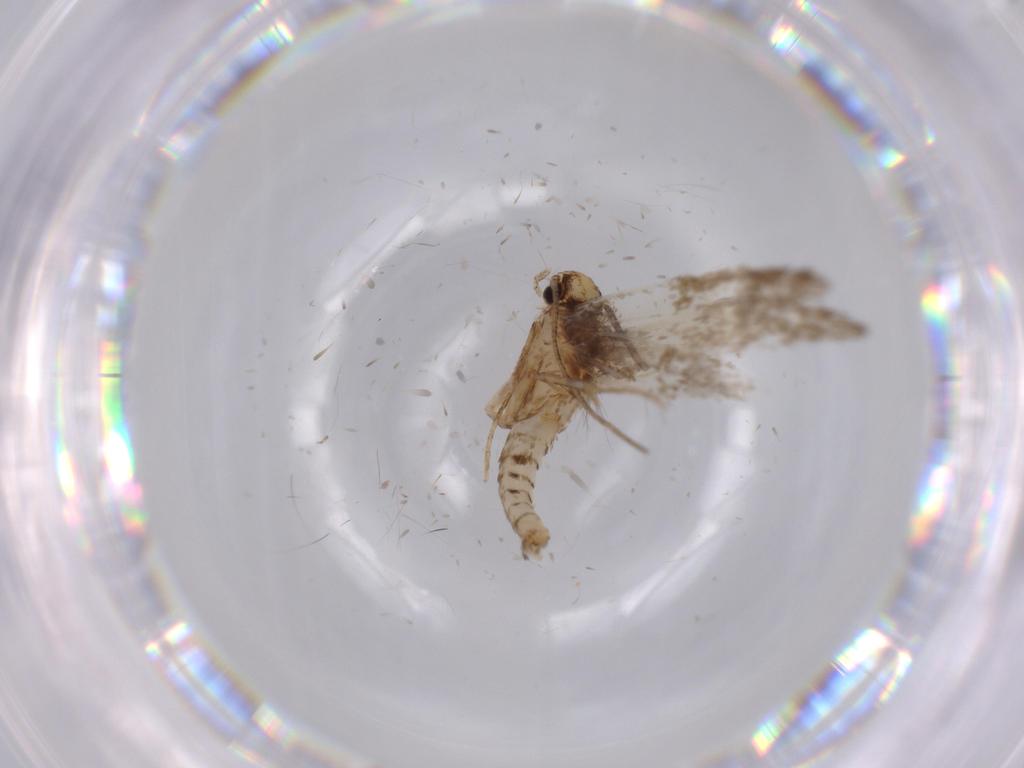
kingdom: Animalia
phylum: Arthropoda
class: Insecta
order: Lepidoptera
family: Tineidae
